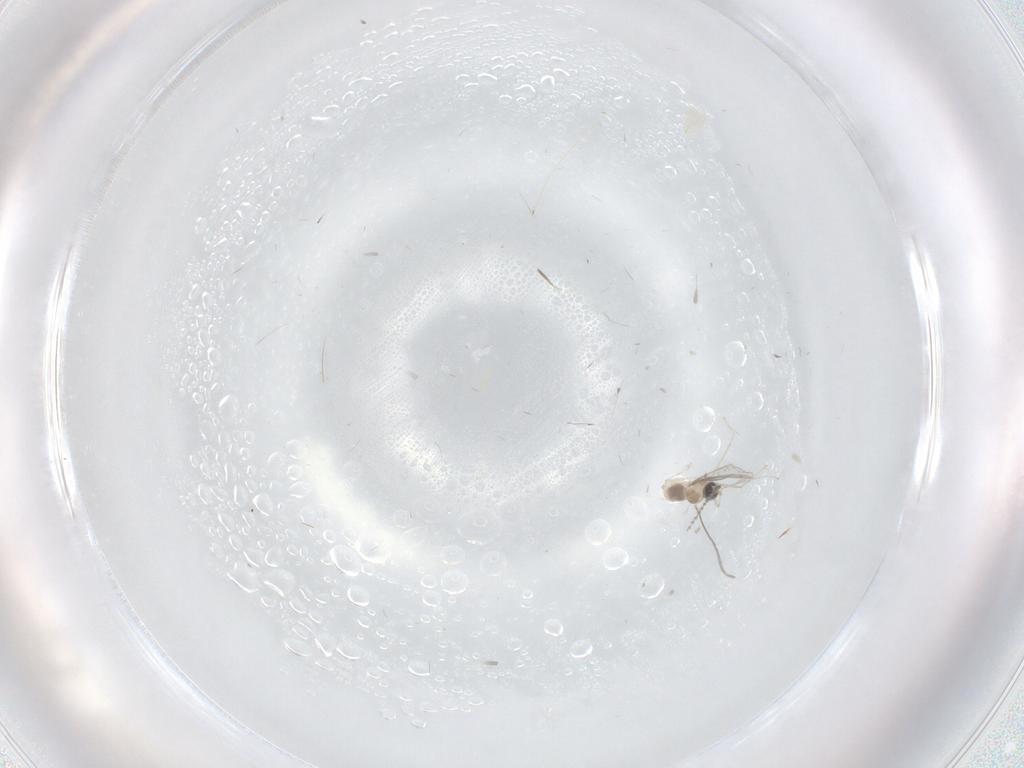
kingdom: Animalia
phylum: Arthropoda
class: Insecta
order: Diptera
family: Cecidomyiidae
